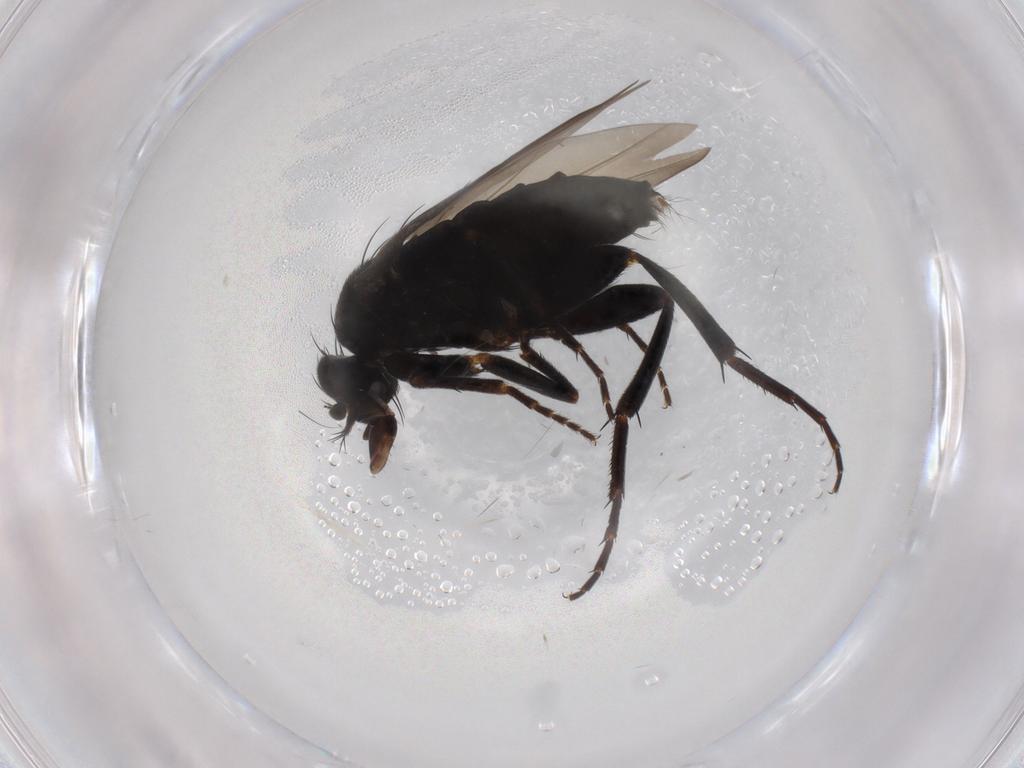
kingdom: Animalia
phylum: Arthropoda
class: Insecta
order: Diptera
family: Phoridae
